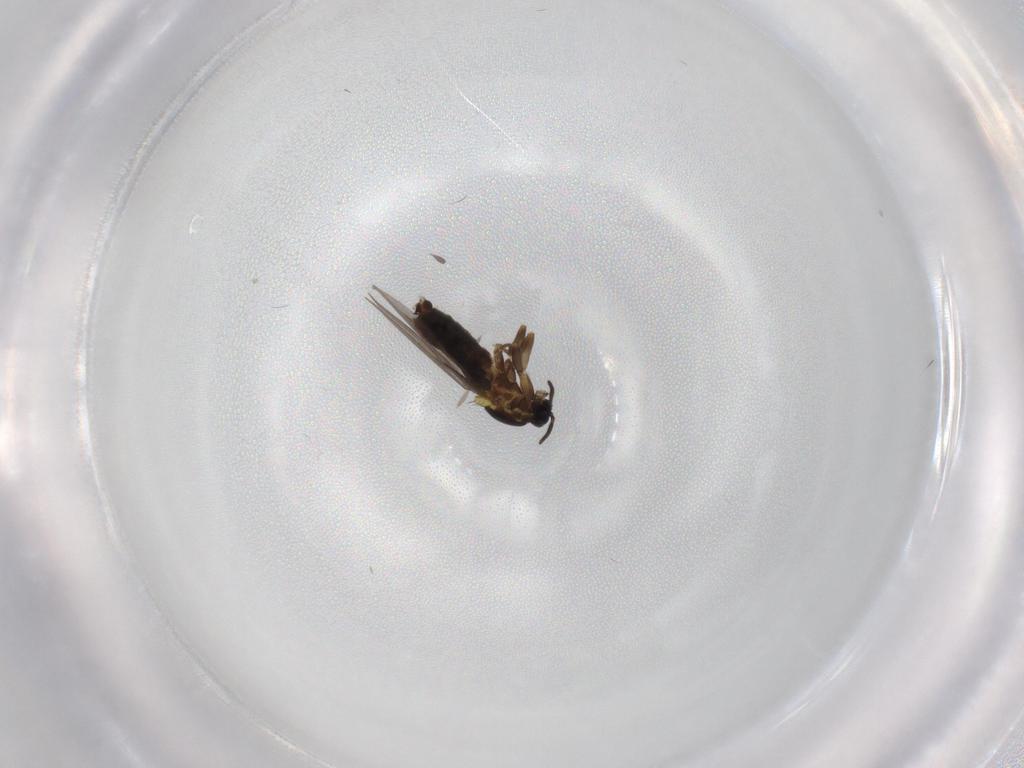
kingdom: Animalia
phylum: Arthropoda
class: Insecta
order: Diptera
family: Scatopsidae
